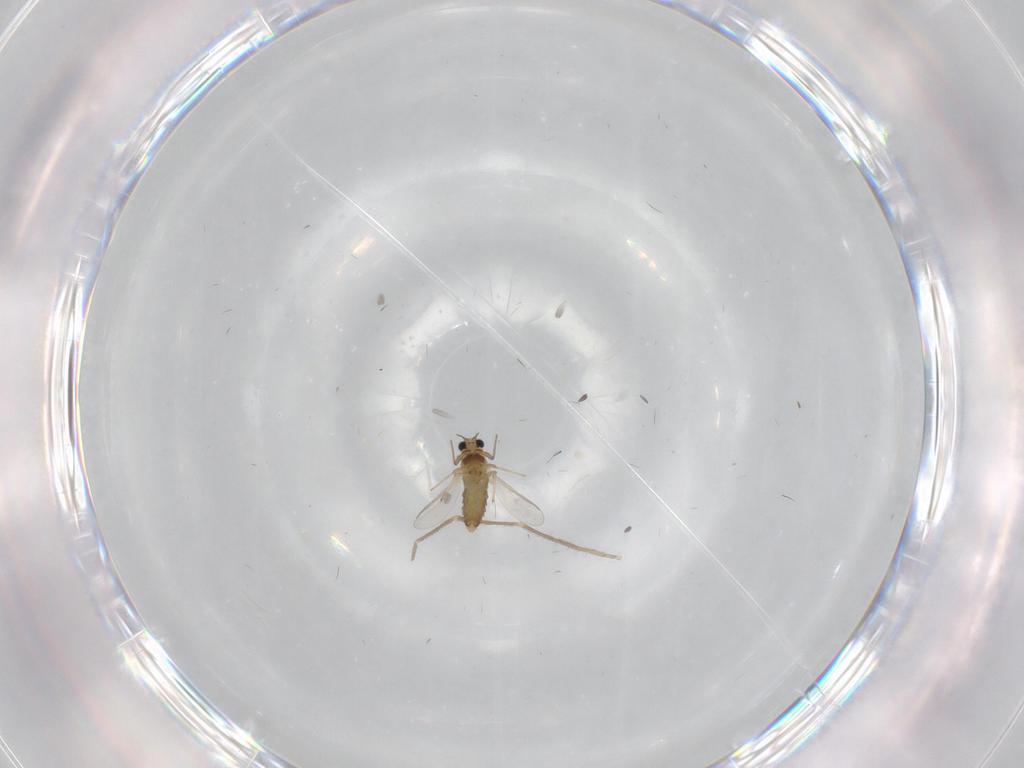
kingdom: Animalia
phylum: Arthropoda
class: Insecta
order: Diptera
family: Chironomidae
